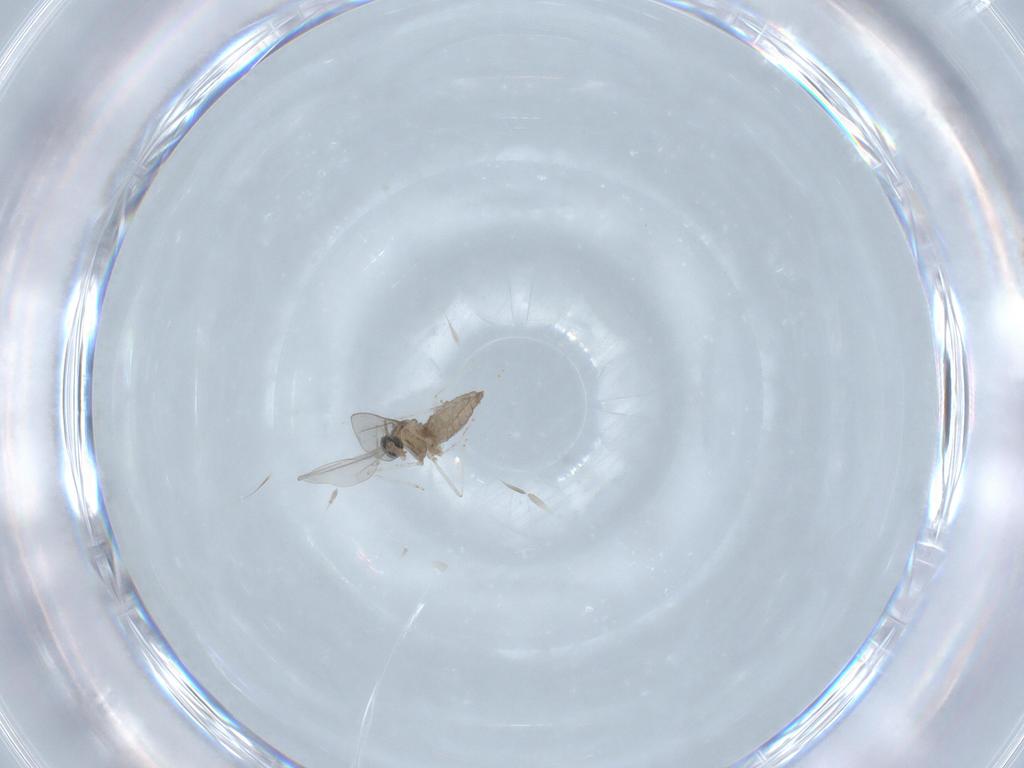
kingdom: Animalia
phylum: Arthropoda
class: Insecta
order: Diptera
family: Cecidomyiidae
